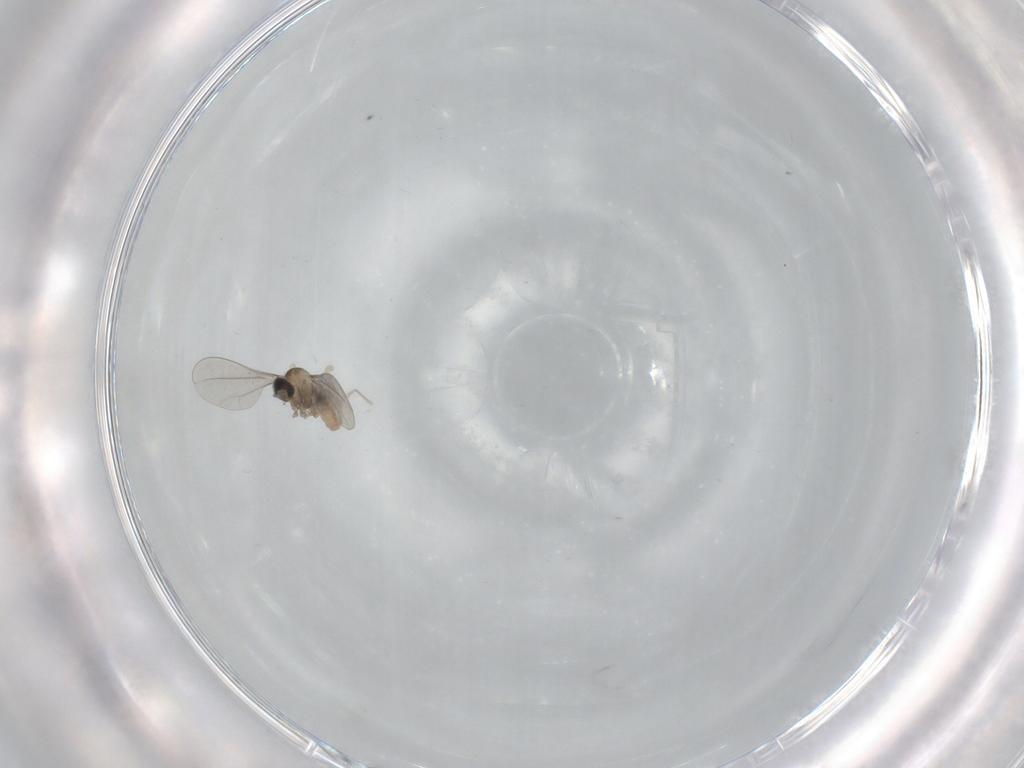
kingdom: Animalia
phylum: Arthropoda
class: Insecta
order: Diptera
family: Cecidomyiidae
